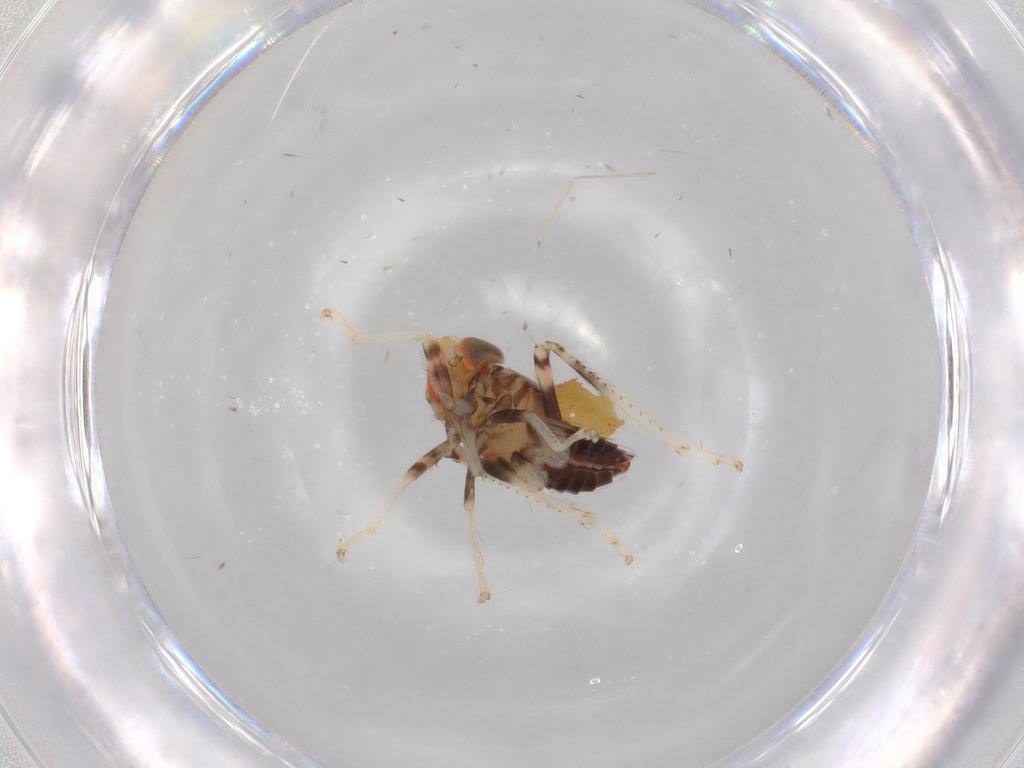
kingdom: Animalia
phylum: Arthropoda
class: Insecta
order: Hemiptera
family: Cicadellidae
